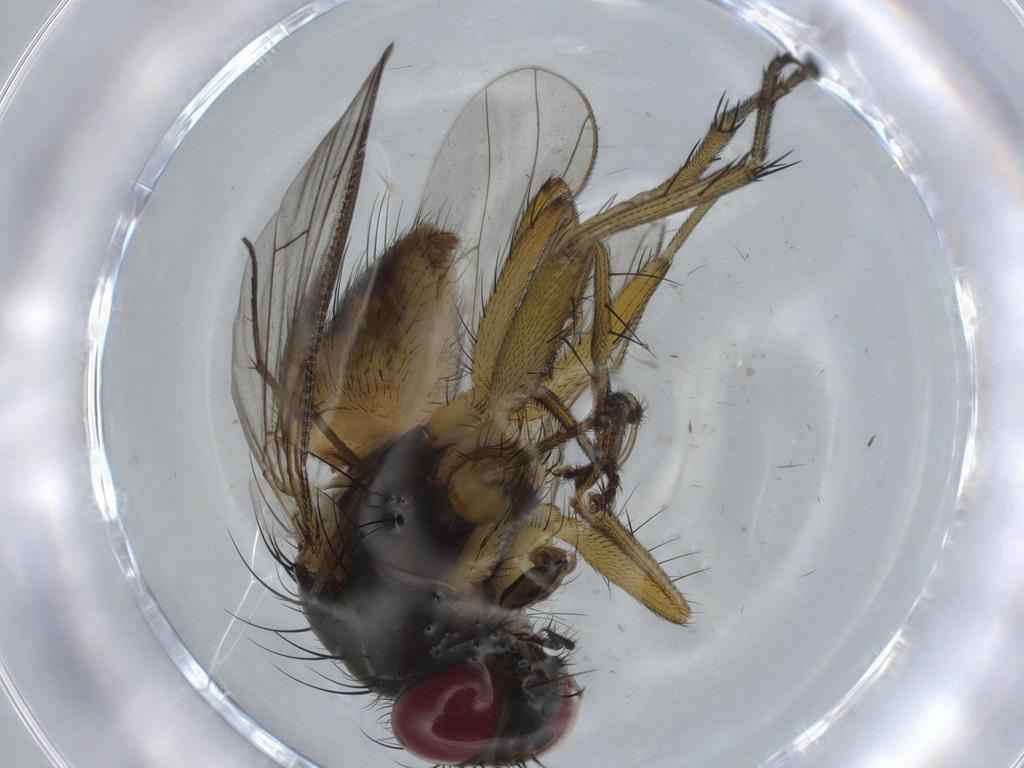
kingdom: Animalia
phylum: Arthropoda
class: Insecta
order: Diptera
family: Muscidae
